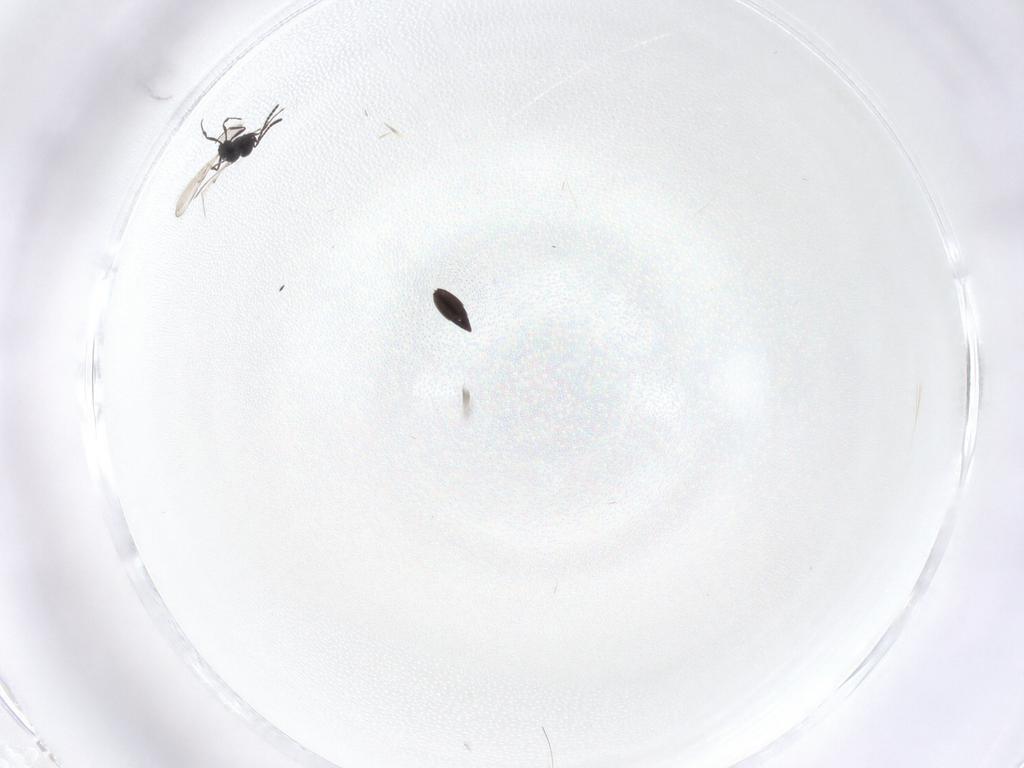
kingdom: Animalia
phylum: Arthropoda
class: Insecta
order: Hymenoptera
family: Scelionidae
